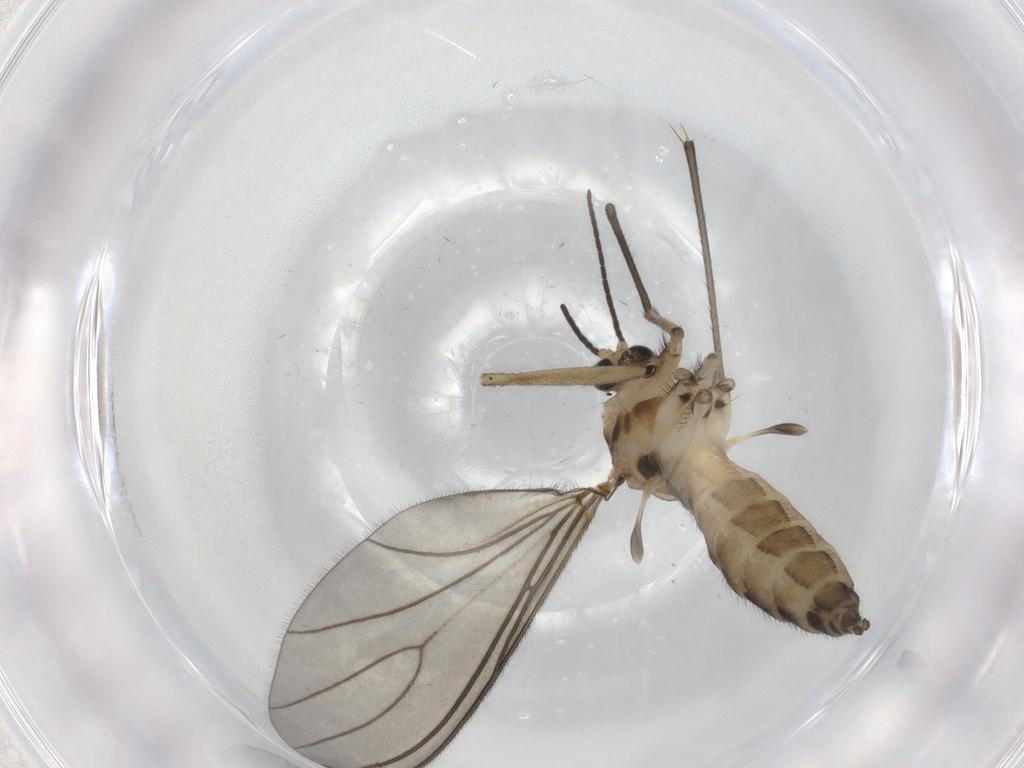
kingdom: Animalia
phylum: Arthropoda
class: Insecta
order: Diptera
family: Sciaridae
